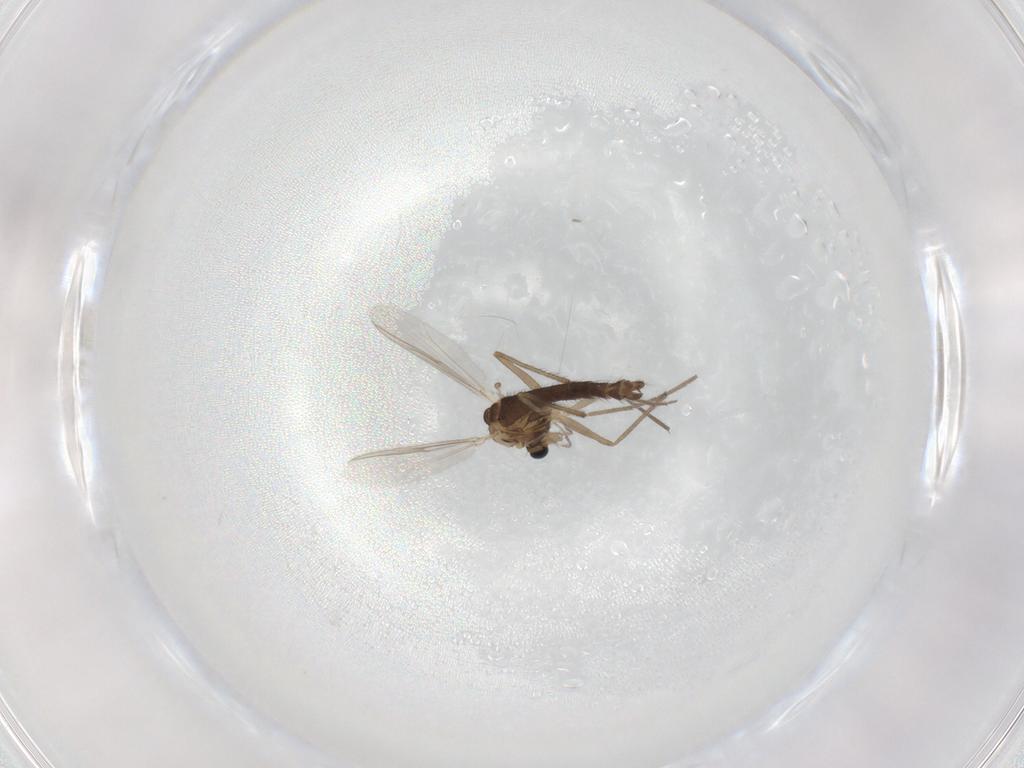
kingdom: Animalia
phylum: Arthropoda
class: Insecta
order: Diptera
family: Chironomidae
